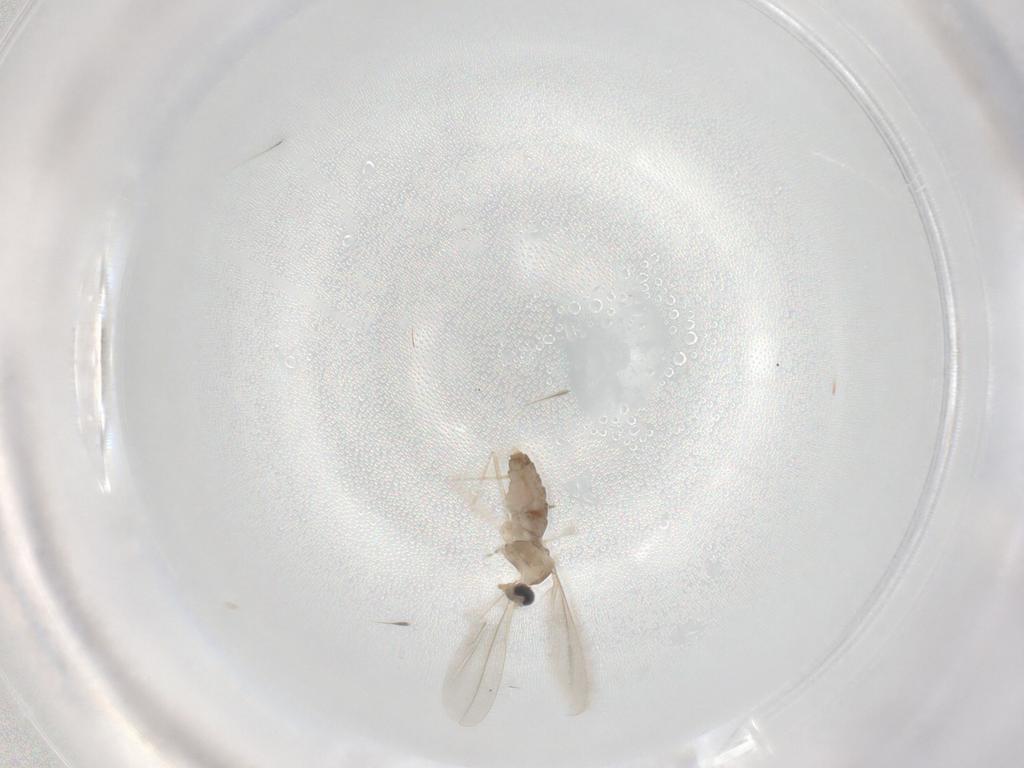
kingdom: Animalia
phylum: Arthropoda
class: Insecta
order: Diptera
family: Cecidomyiidae
